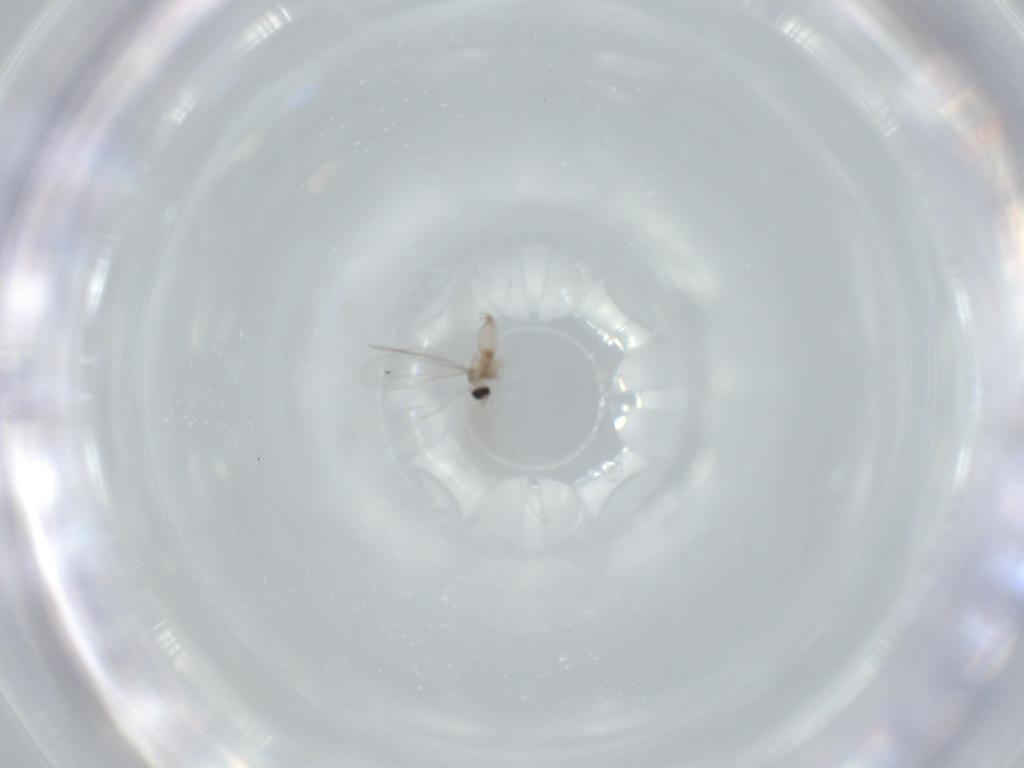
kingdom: Animalia
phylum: Arthropoda
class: Insecta
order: Diptera
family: Cecidomyiidae
